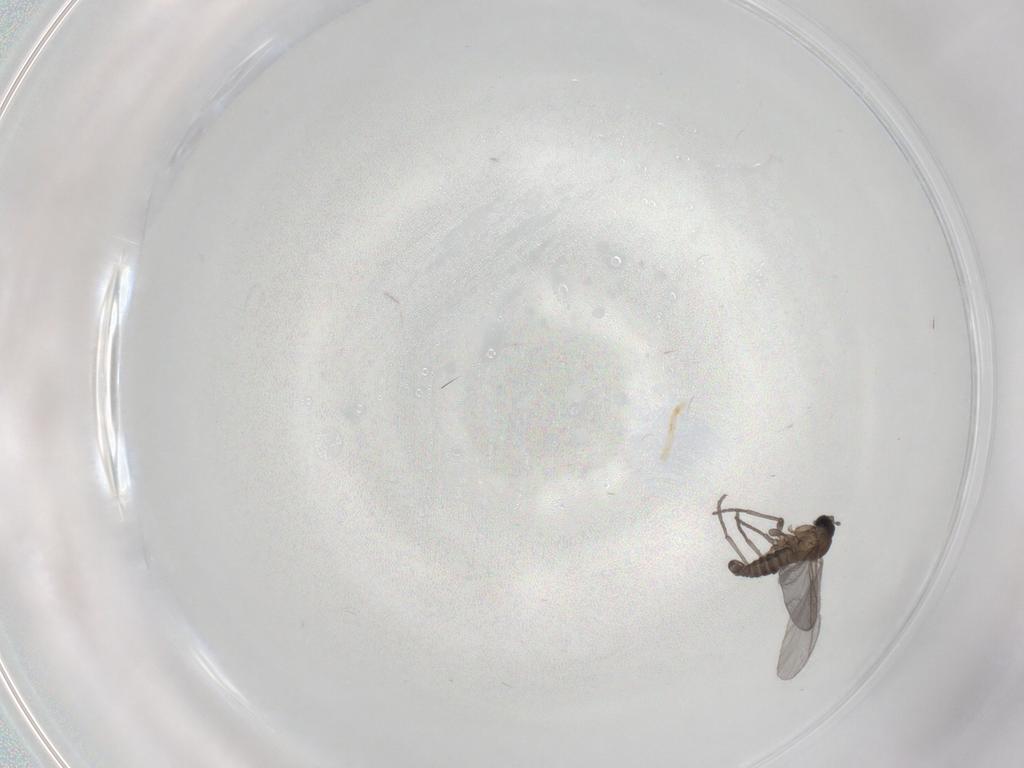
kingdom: Animalia
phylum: Arthropoda
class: Insecta
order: Diptera
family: Sciaridae
